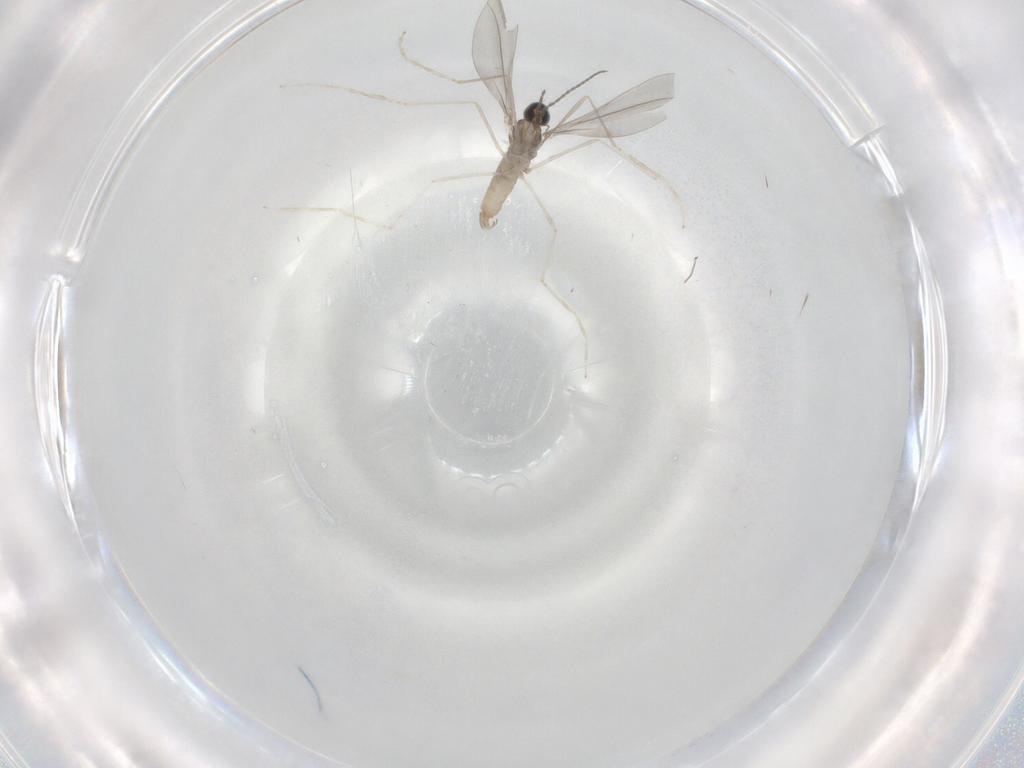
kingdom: Animalia
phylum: Arthropoda
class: Insecta
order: Diptera
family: Cecidomyiidae
